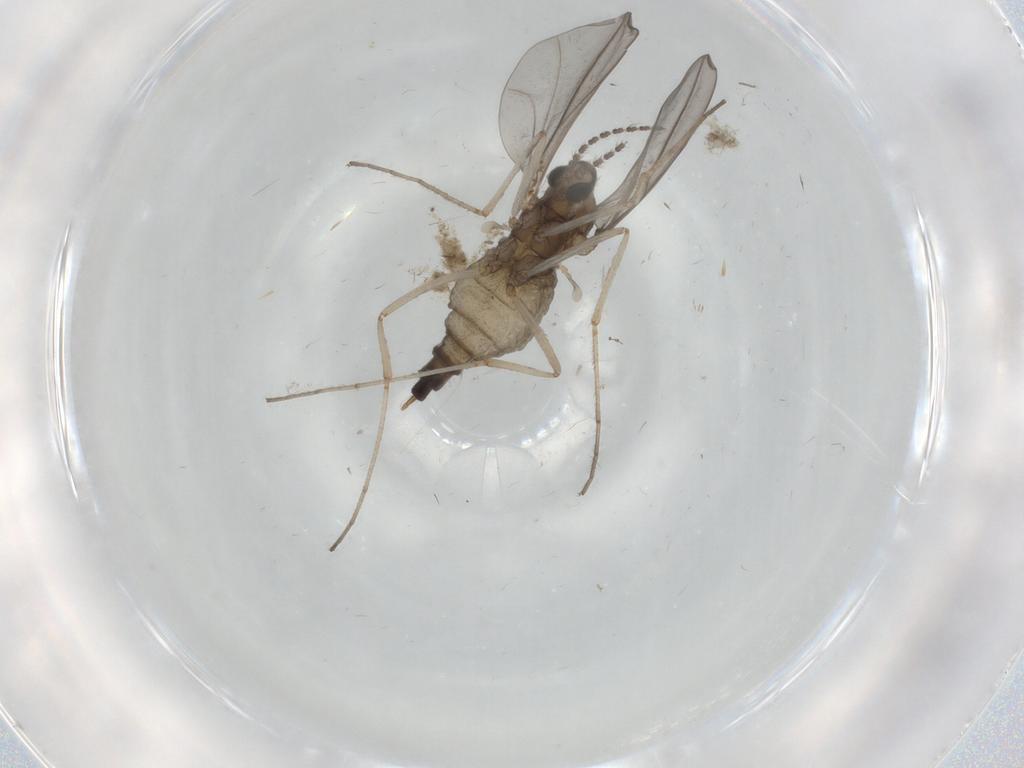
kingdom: Animalia
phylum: Arthropoda
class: Insecta
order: Diptera
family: Cecidomyiidae
